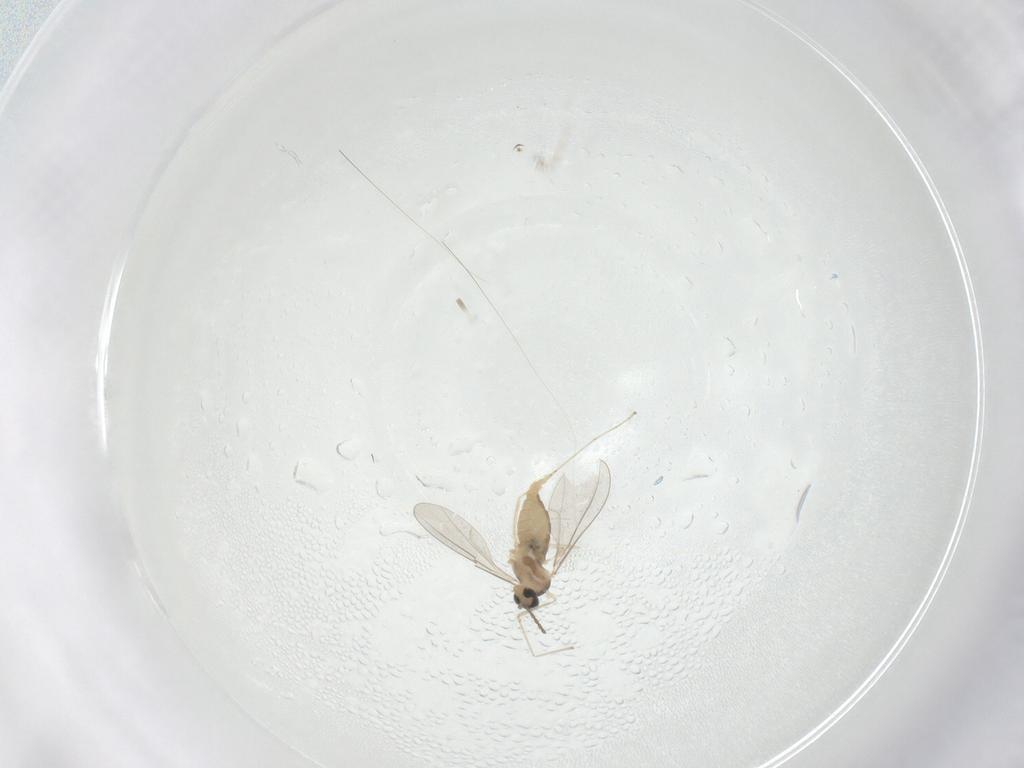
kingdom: Animalia
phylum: Arthropoda
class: Insecta
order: Diptera
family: Cecidomyiidae
